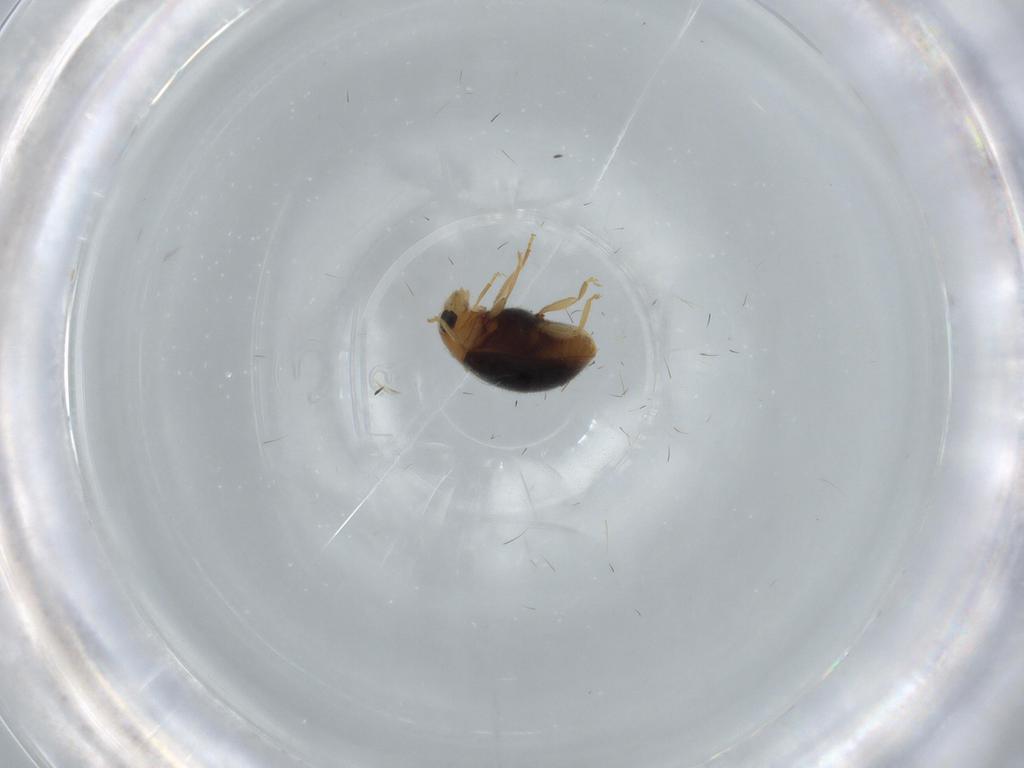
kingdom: Animalia
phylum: Arthropoda
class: Insecta
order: Coleoptera
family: Coccinellidae
